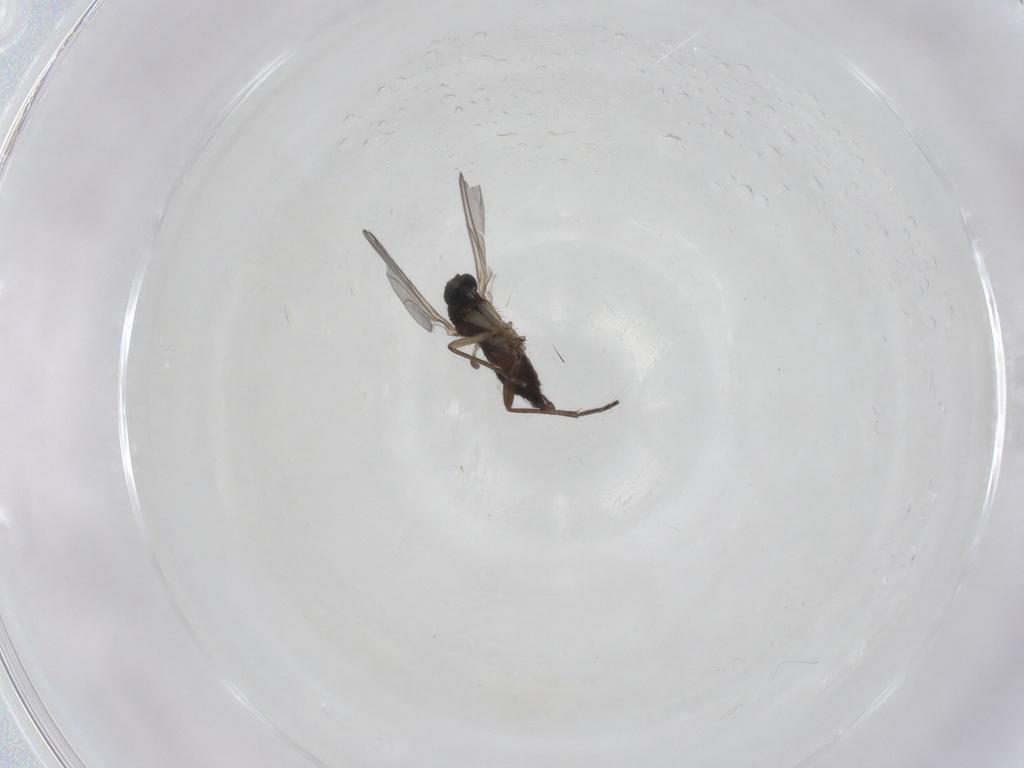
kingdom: Animalia
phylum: Arthropoda
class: Insecta
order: Diptera
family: Sciaridae
